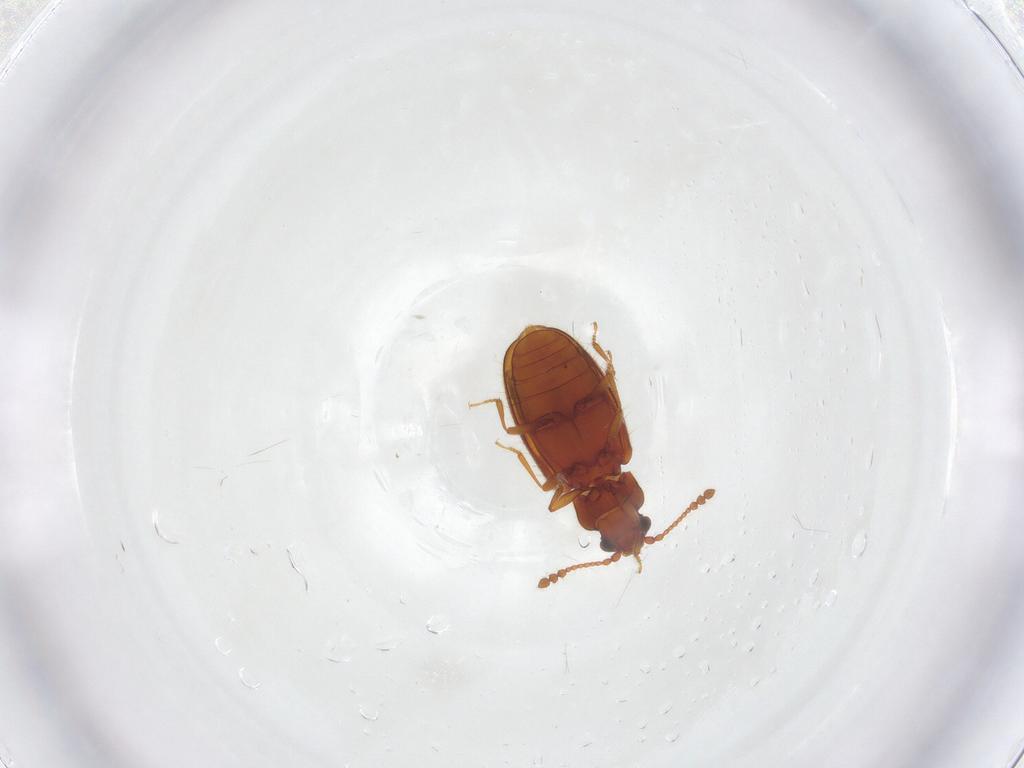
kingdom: Animalia
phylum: Arthropoda
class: Insecta
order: Coleoptera
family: Cryptophagidae
